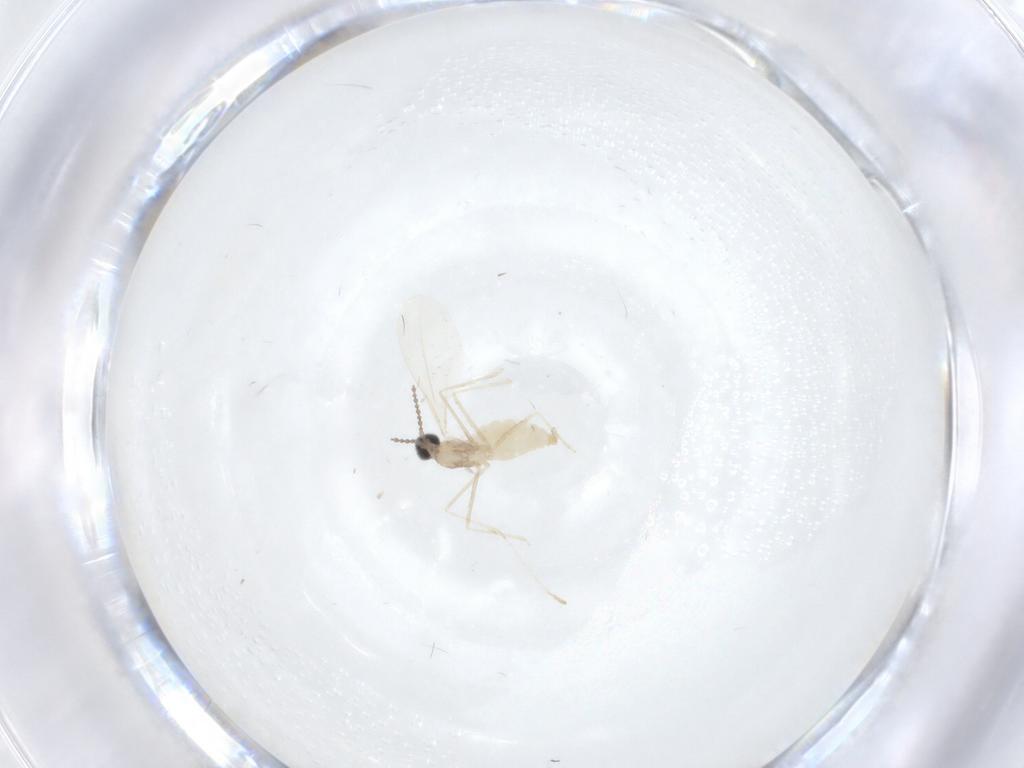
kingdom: Animalia
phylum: Arthropoda
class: Insecta
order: Diptera
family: Cecidomyiidae
